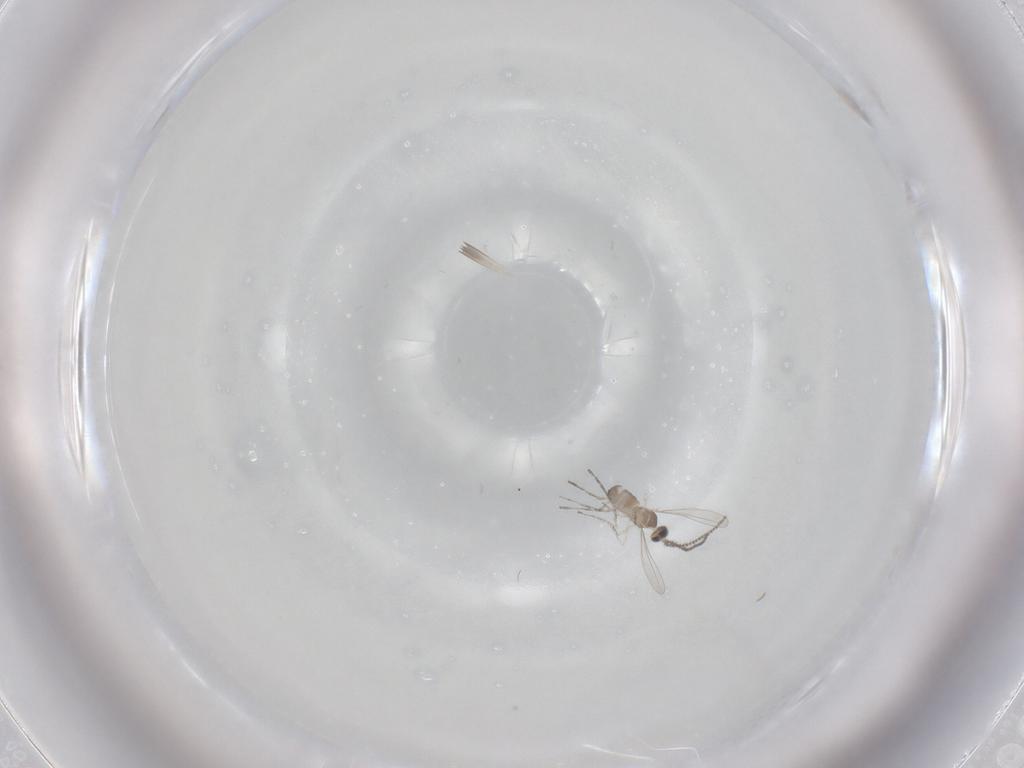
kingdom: Animalia
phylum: Arthropoda
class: Insecta
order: Diptera
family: Cecidomyiidae
